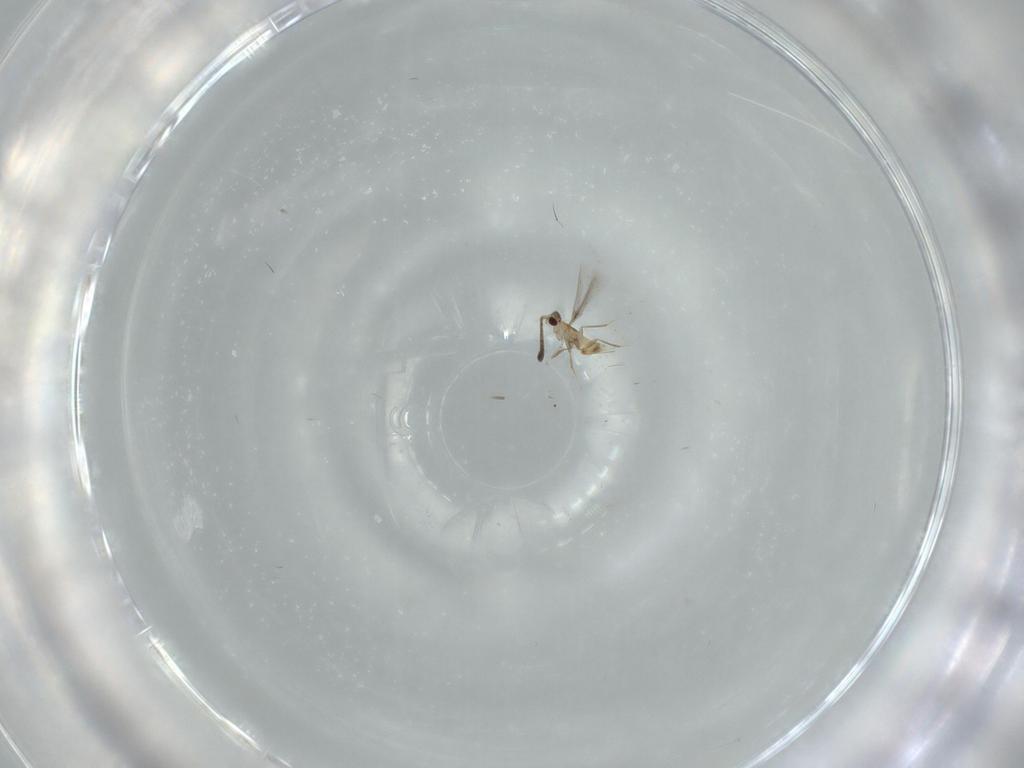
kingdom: Animalia
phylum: Arthropoda
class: Insecta
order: Hymenoptera
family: Mymaridae
